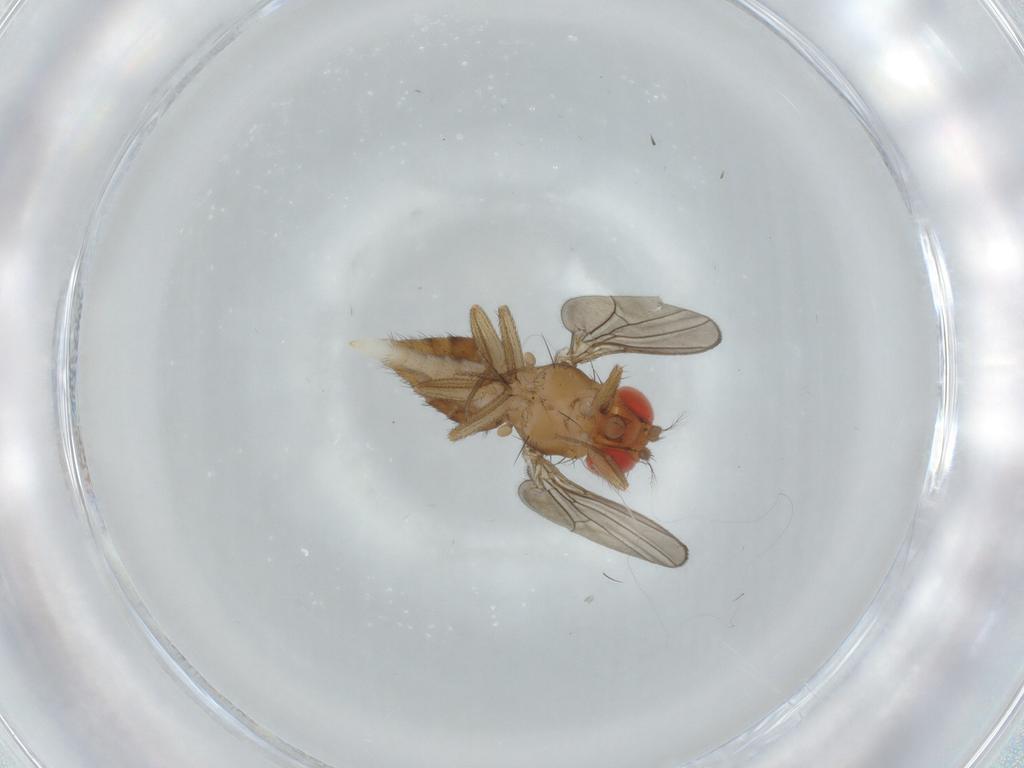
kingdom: Animalia
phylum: Arthropoda
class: Insecta
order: Diptera
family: Drosophilidae
